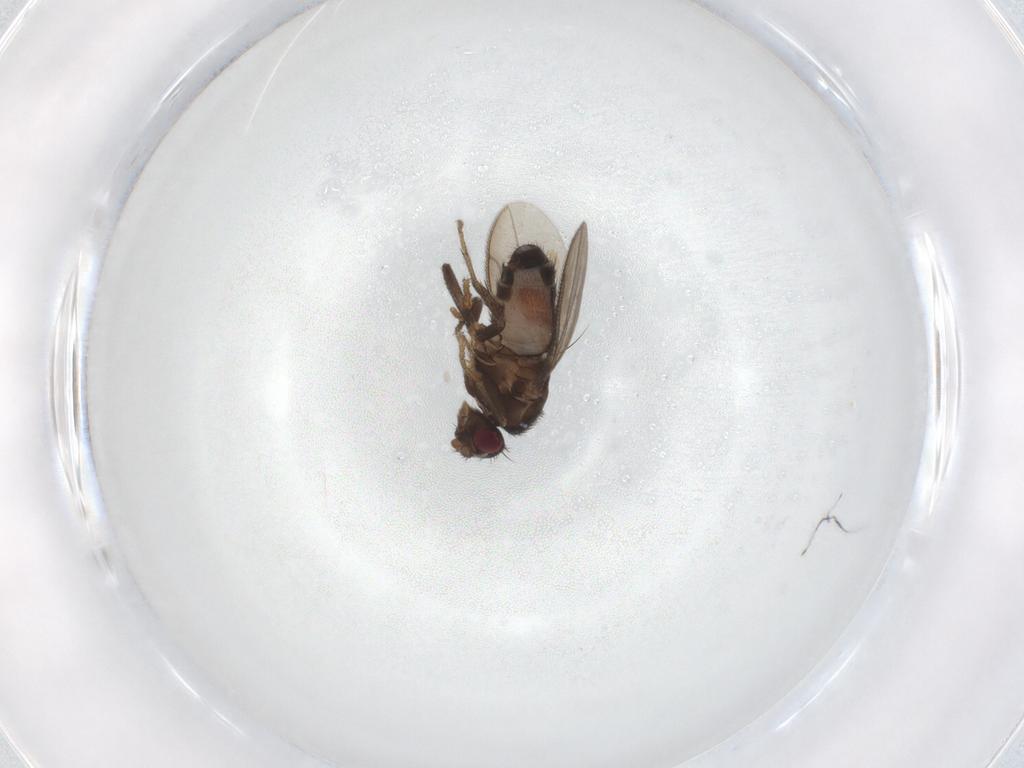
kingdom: Animalia
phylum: Arthropoda
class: Insecta
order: Diptera
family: Sphaeroceridae
